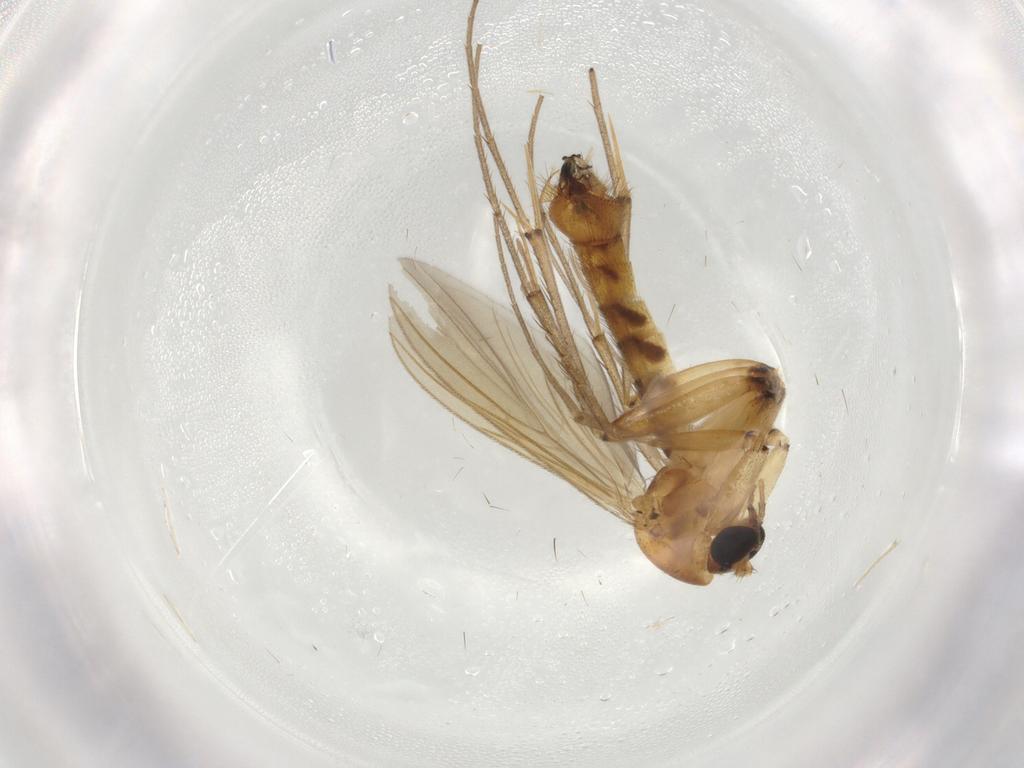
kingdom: Animalia
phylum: Arthropoda
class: Insecta
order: Diptera
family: Mycetophilidae
